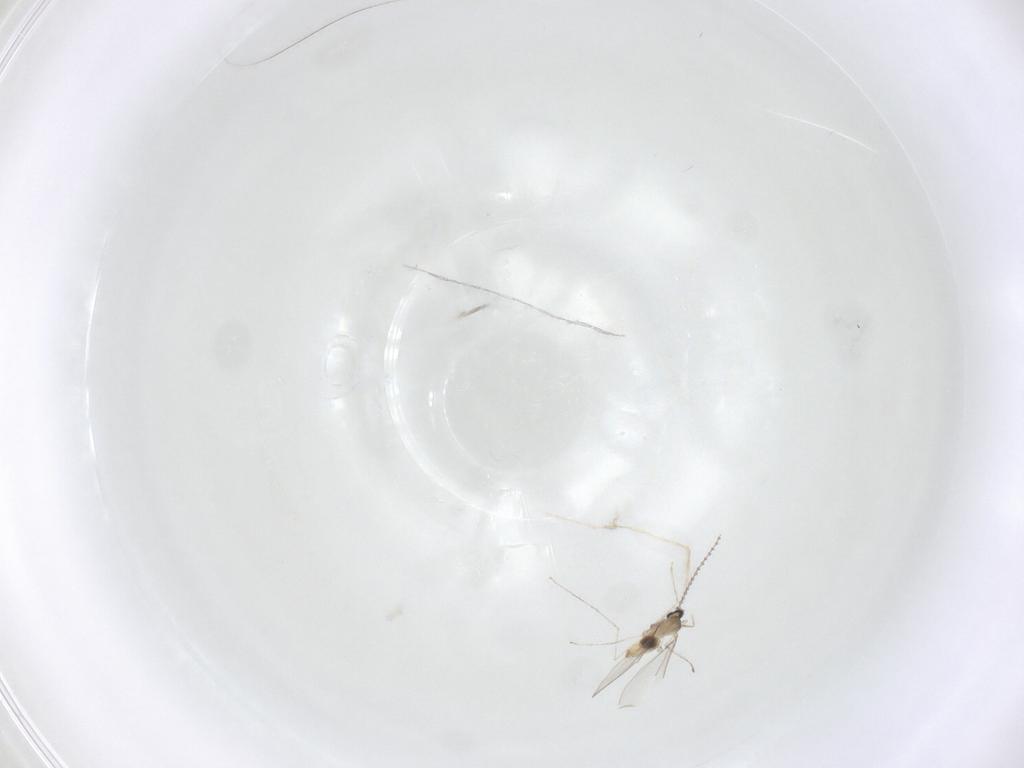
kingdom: Animalia
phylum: Arthropoda
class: Insecta
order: Diptera
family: Cecidomyiidae
